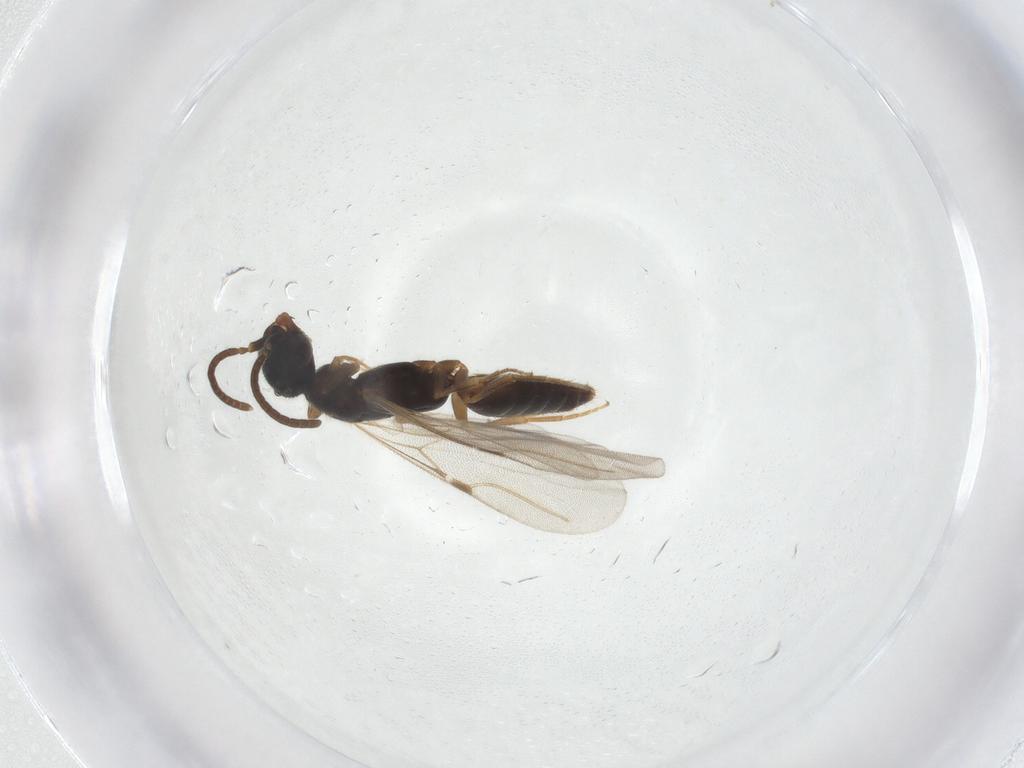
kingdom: Animalia
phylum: Arthropoda
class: Insecta
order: Hymenoptera
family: Bethylidae
